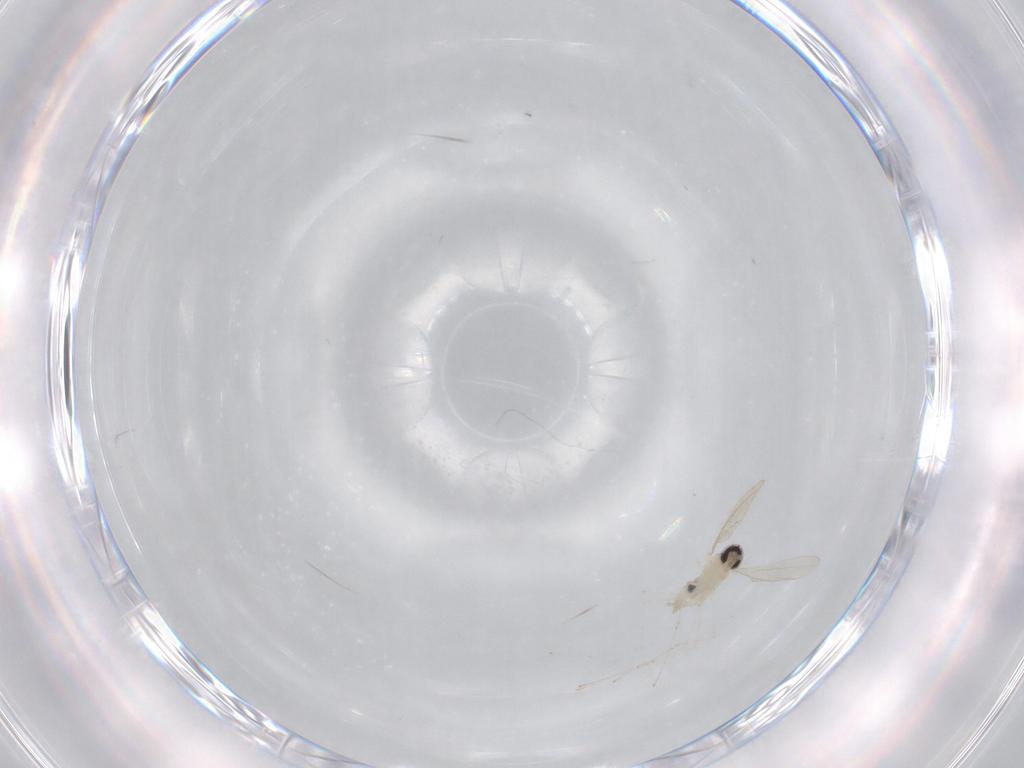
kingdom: Animalia
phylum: Arthropoda
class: Insecta
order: Diptera
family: Cecidomyiidae
